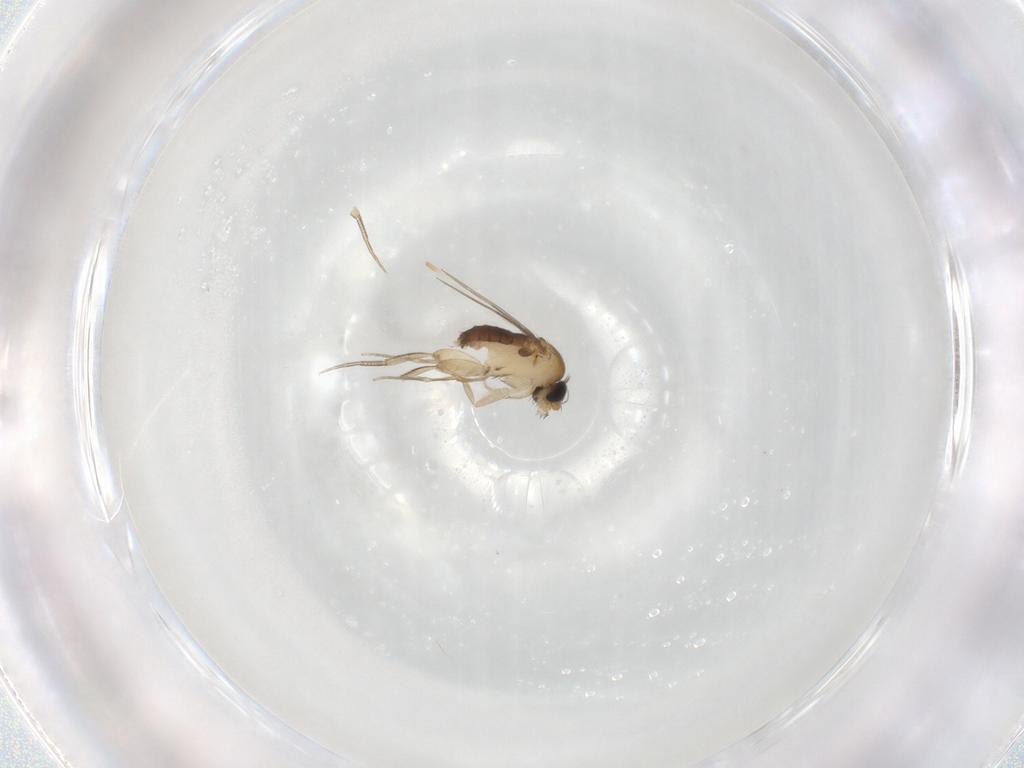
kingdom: Animalia
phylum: Arthropoda
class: Insecta
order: Diptera
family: Phoridae
